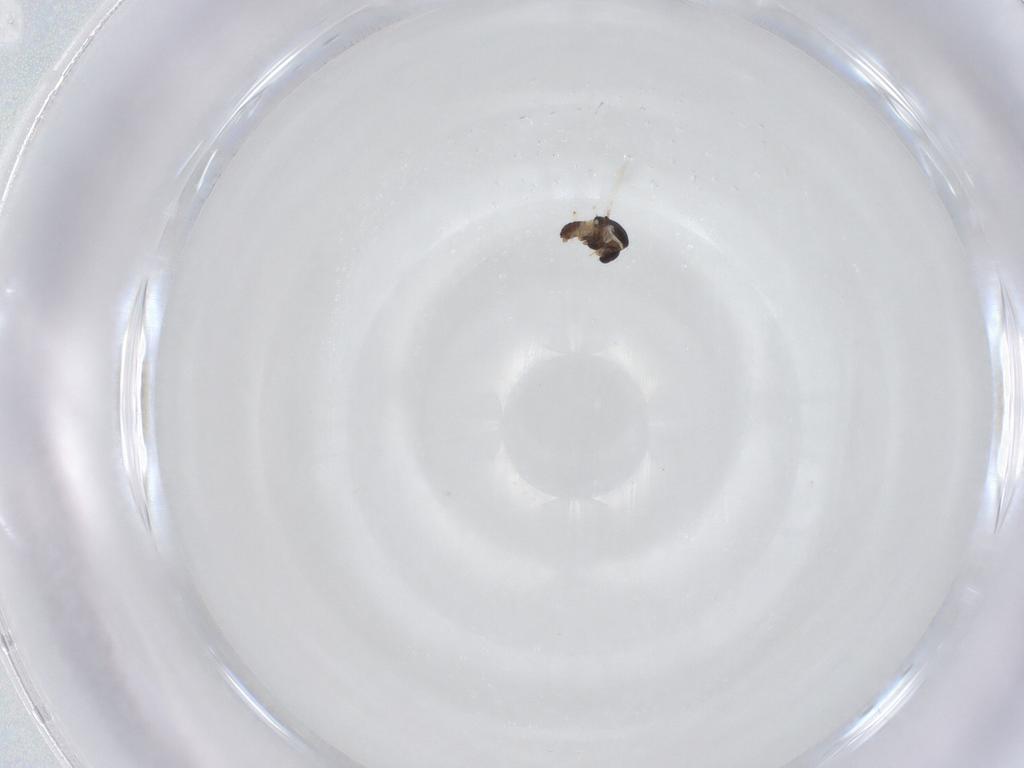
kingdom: Animalia
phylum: Arthropoda
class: Insecta
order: Diptera
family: Chironomidae
